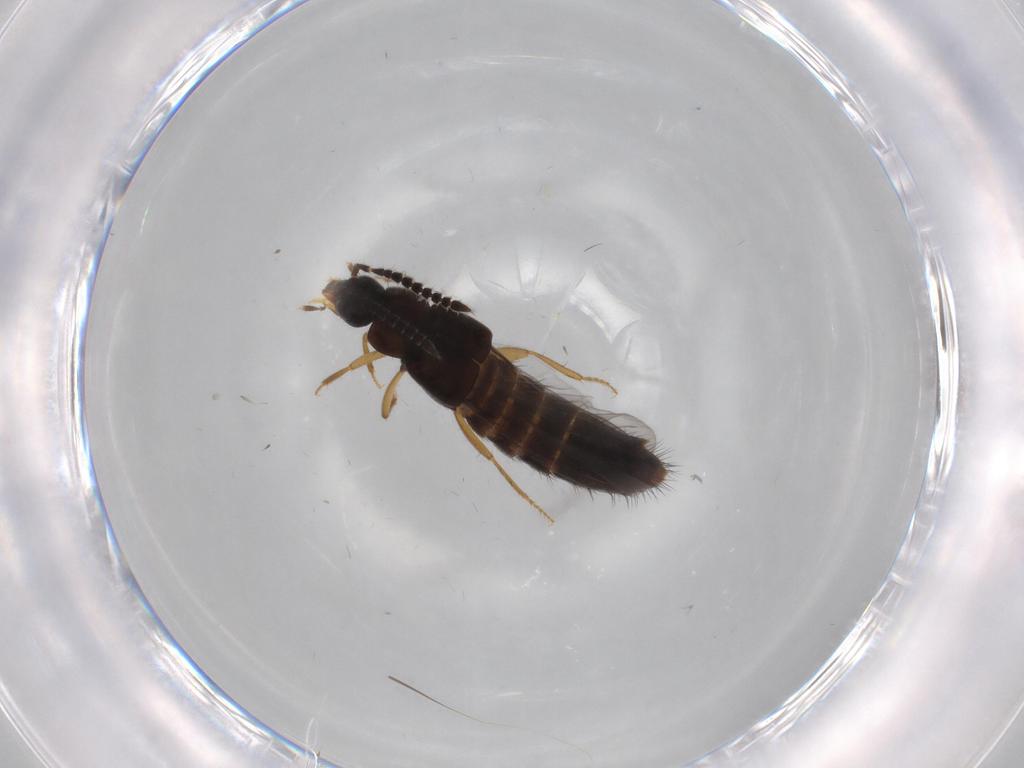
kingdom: Animalia
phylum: Arthropoda
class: Insecta
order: Coleoptera
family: Staphylinidae
